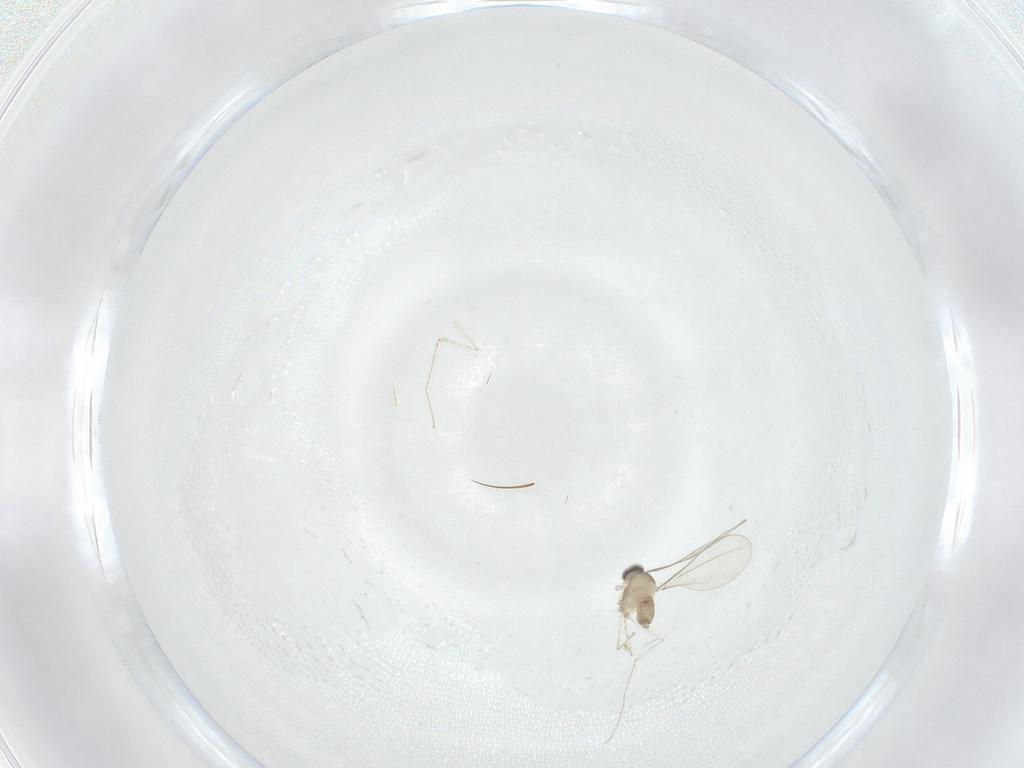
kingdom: Animalia
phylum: Arthropoda
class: Insecta
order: Diptera
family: Cecidomyiidae
